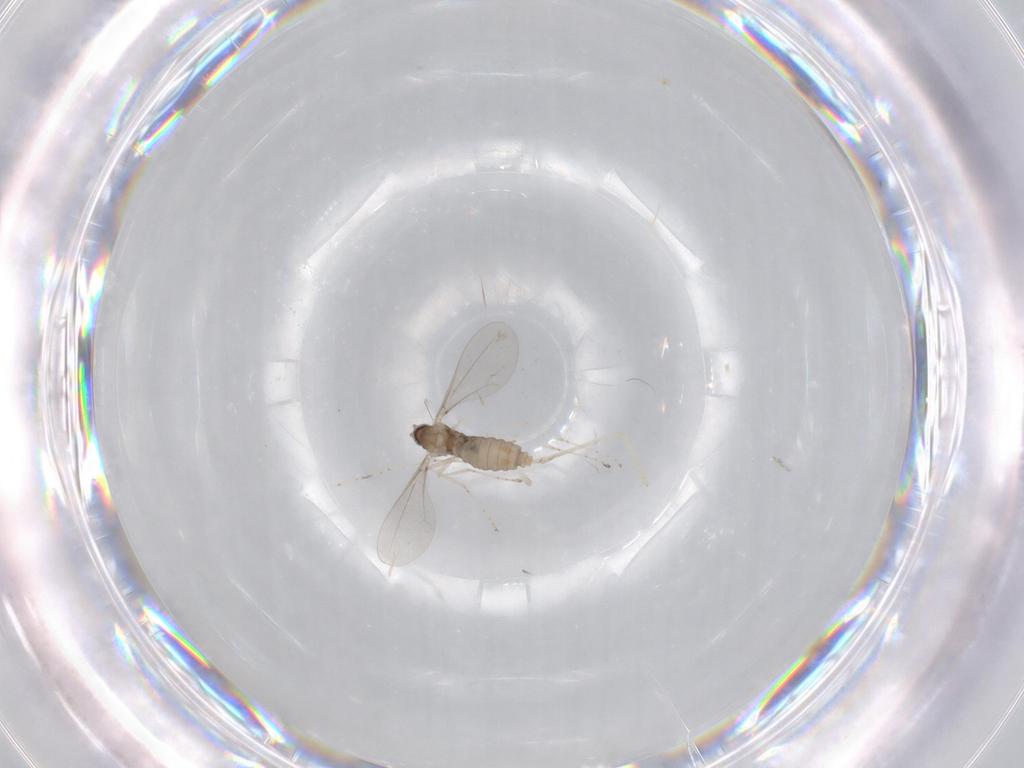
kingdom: Animalia
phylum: Arthropoda
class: Insecta
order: Diptera
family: Cecidomyiidae
